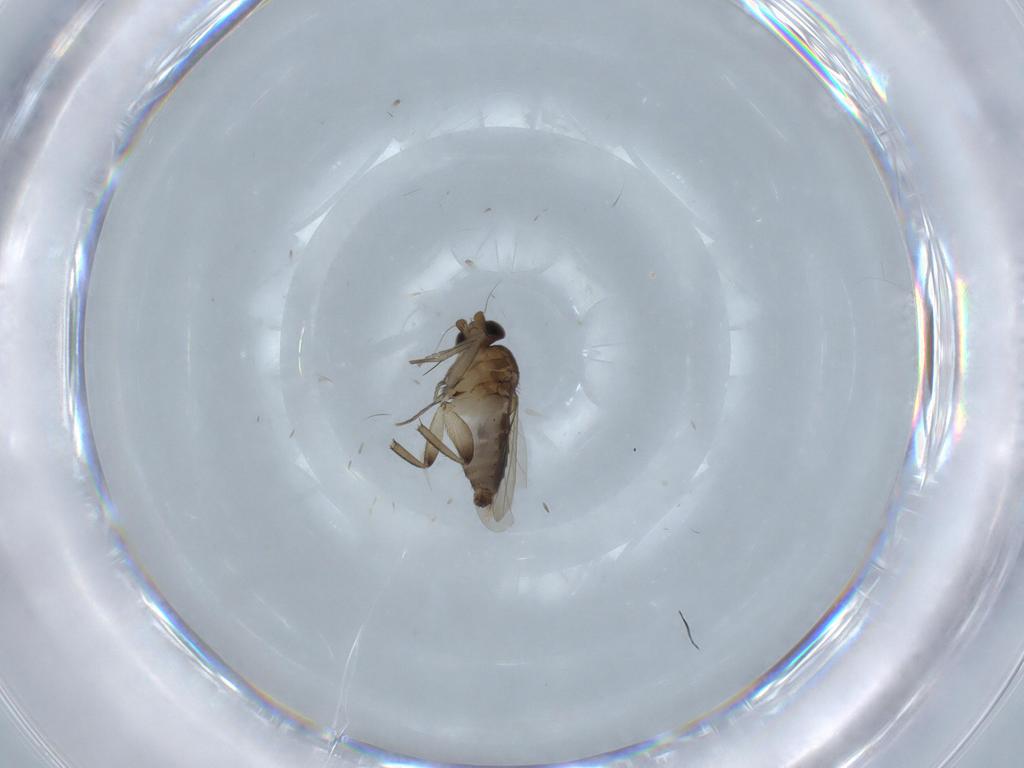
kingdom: Animalia
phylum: Arthropoda
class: Insecta
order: Diptera
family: Phoridae
